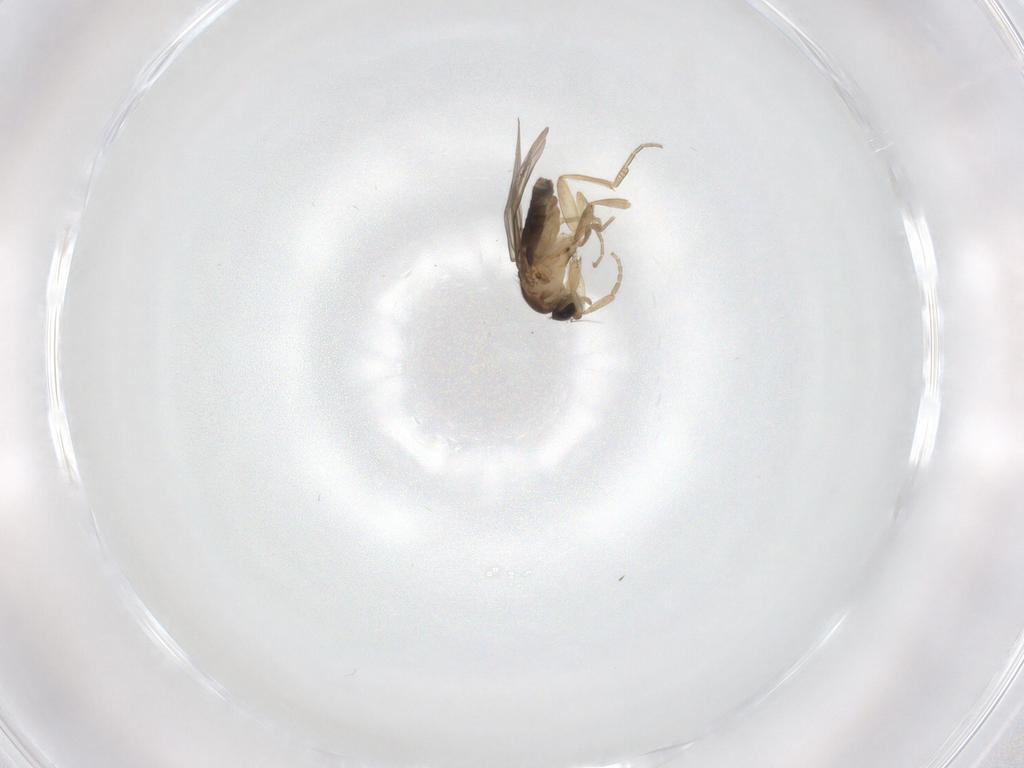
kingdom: Animalia
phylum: Arthropoda
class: Insecta
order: Diptera
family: Phoridae
